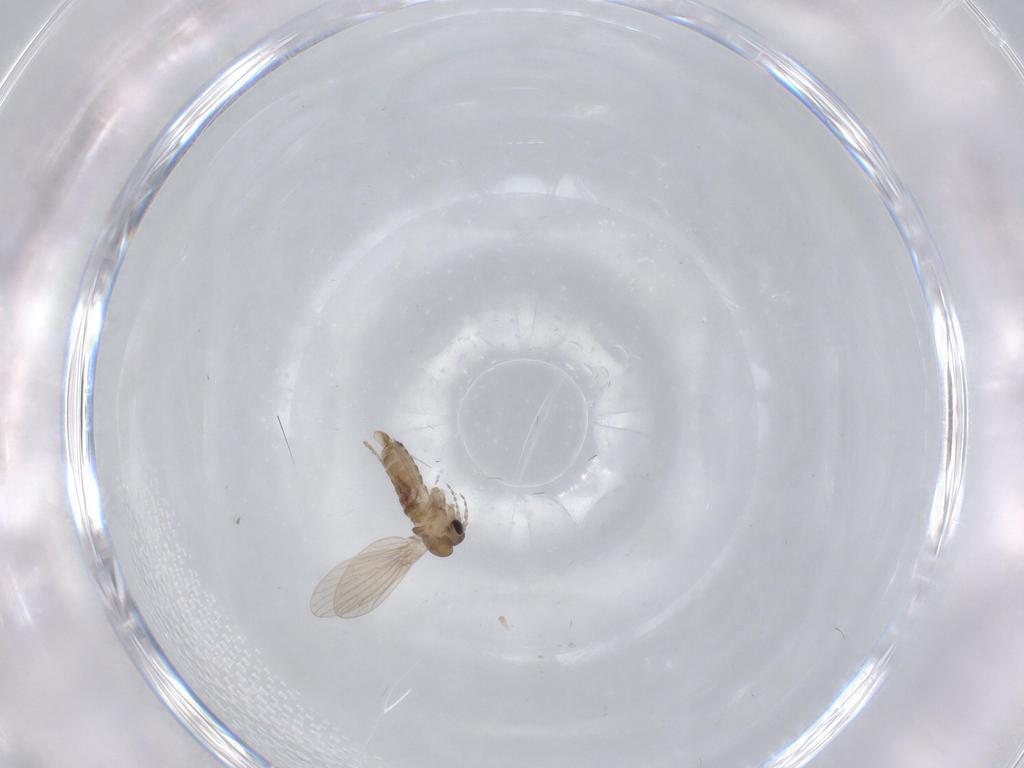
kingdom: Animalia
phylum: Arthropoda
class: Insecta
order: Diptera
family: Psychodidae
